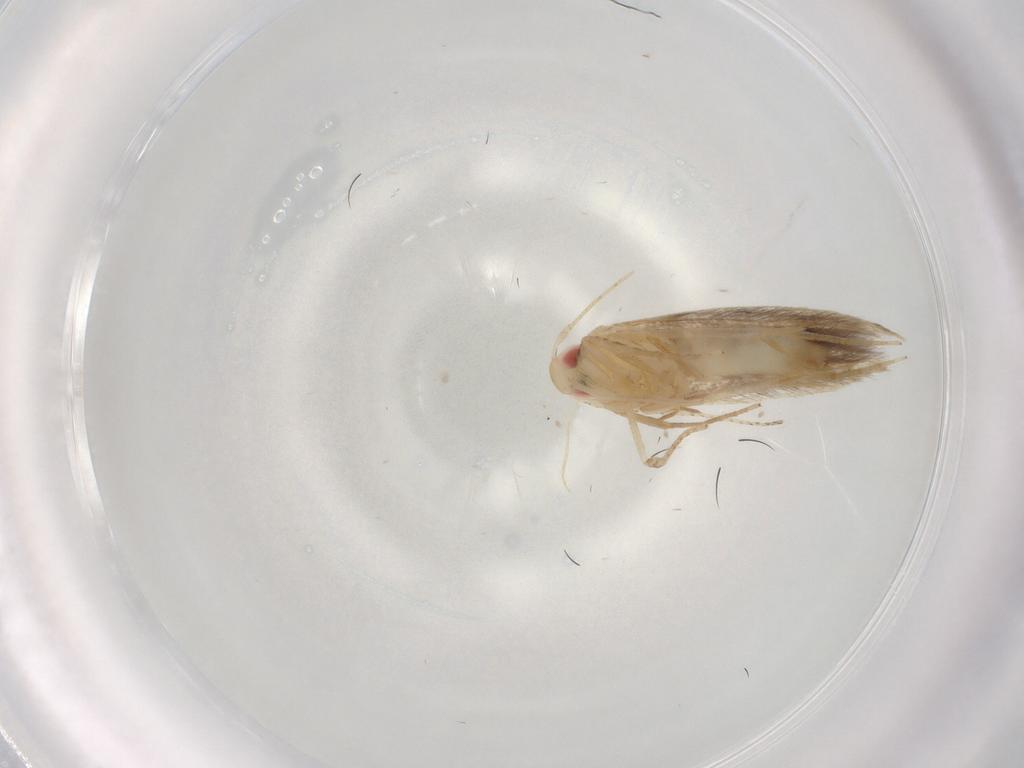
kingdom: Animalia
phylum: Arthropoda
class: Insecta
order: Lepidoptera
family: Gelechiidae
